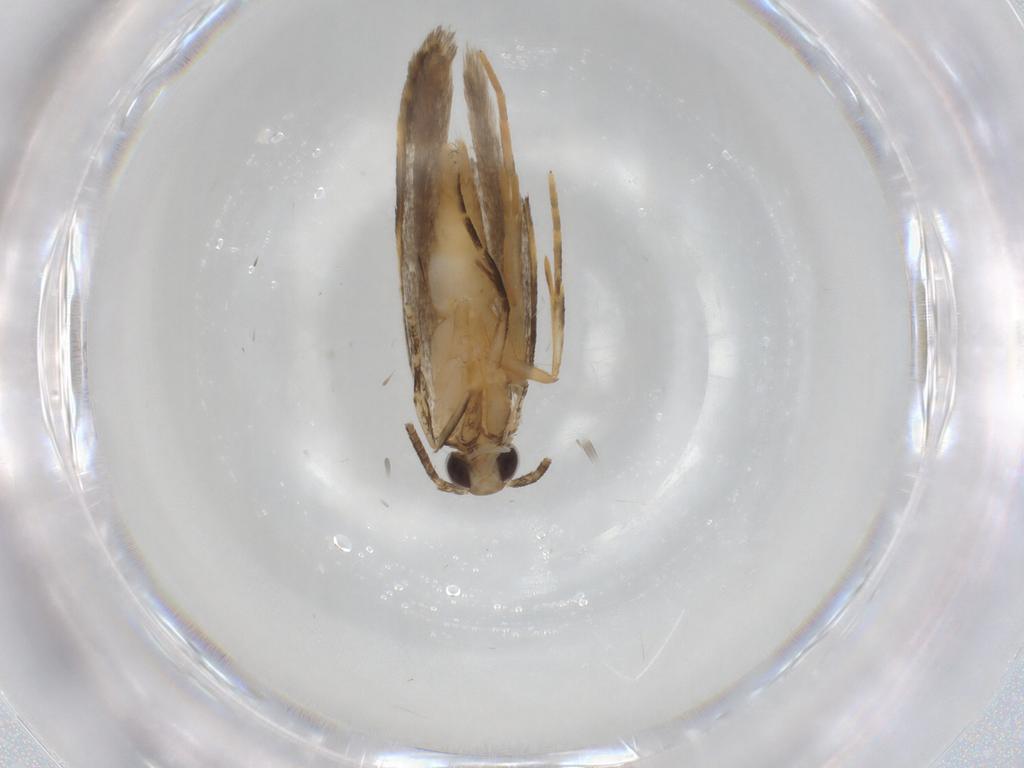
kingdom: Animalia
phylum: Arthropoda
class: Insecta
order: Lepidoptera
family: Autostichidae
